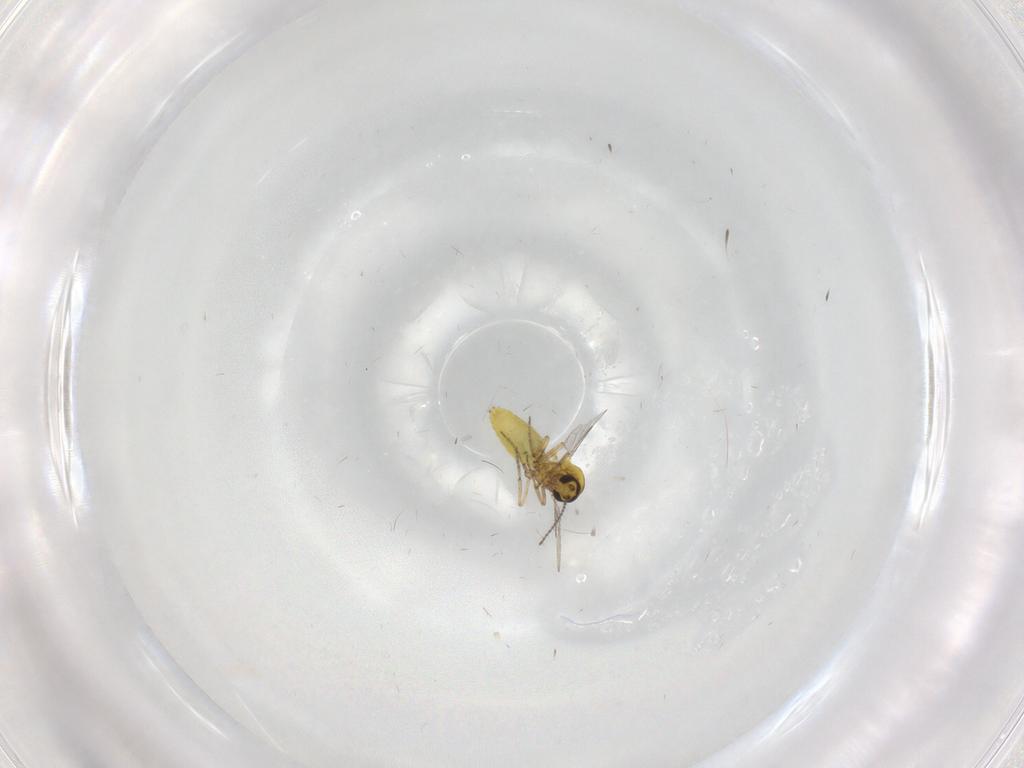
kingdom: Animalia
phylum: Arthropoda
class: Insecta
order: Diptera
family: Ceratopogonidae
